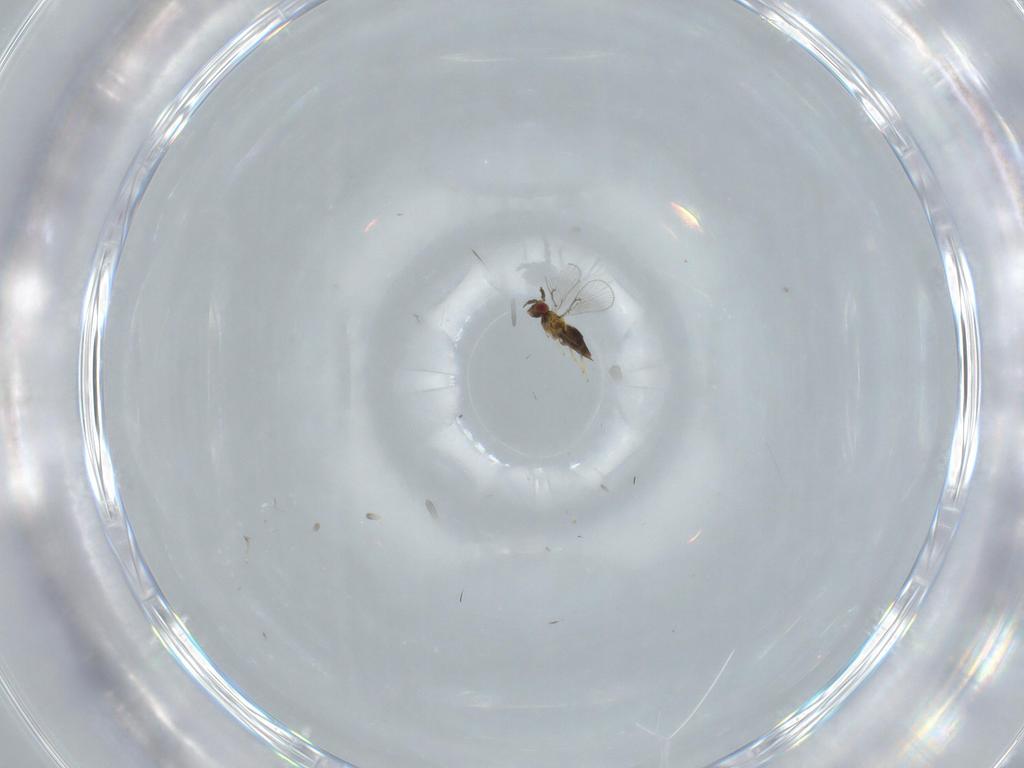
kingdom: Animalia
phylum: Arthropoda
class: Insecta
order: Hymenoptera
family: Trichogrammatidae
